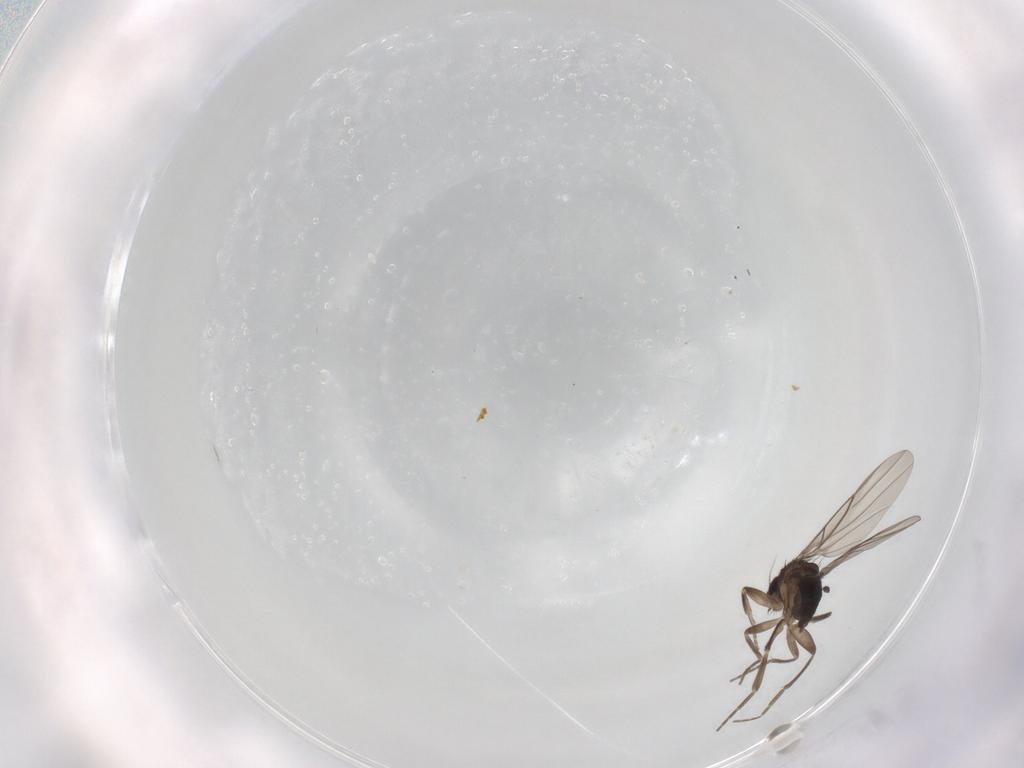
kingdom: Animalia
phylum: Arthropoda
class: Insecta
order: Diptera
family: Phoridae
